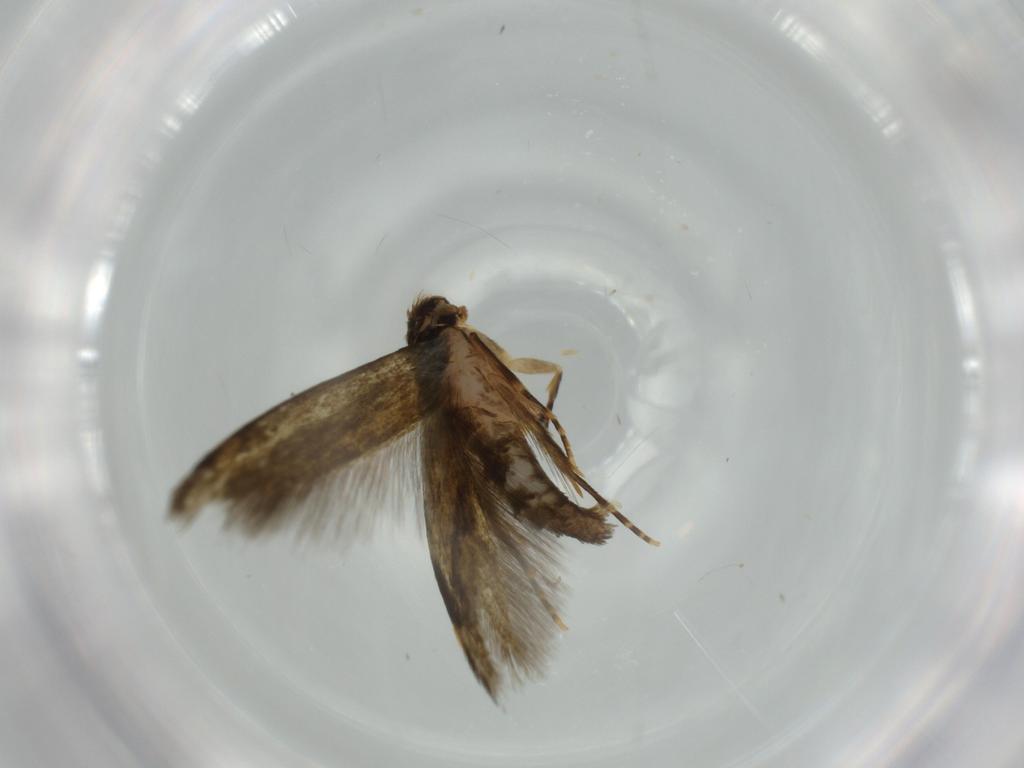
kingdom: Animalia
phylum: Arthropoda
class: Insecta
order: Lepidoptera
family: Tineidae
